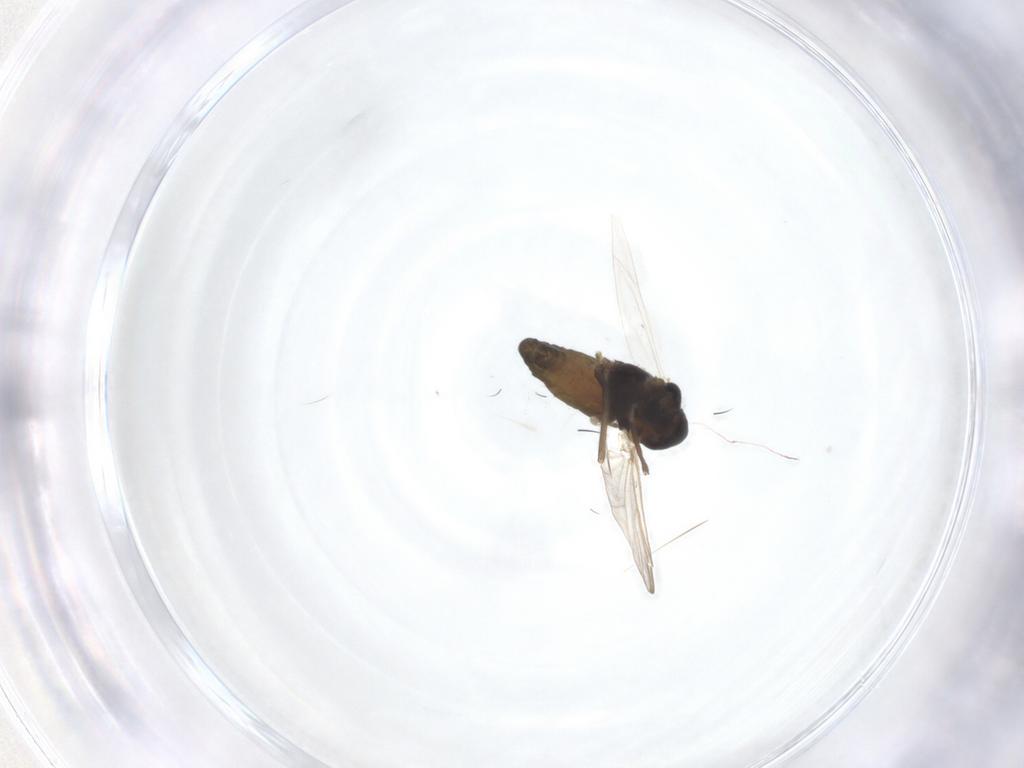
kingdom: Animalia
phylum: Arthropoda
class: Insecta
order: Diptera
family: Chironomidae
